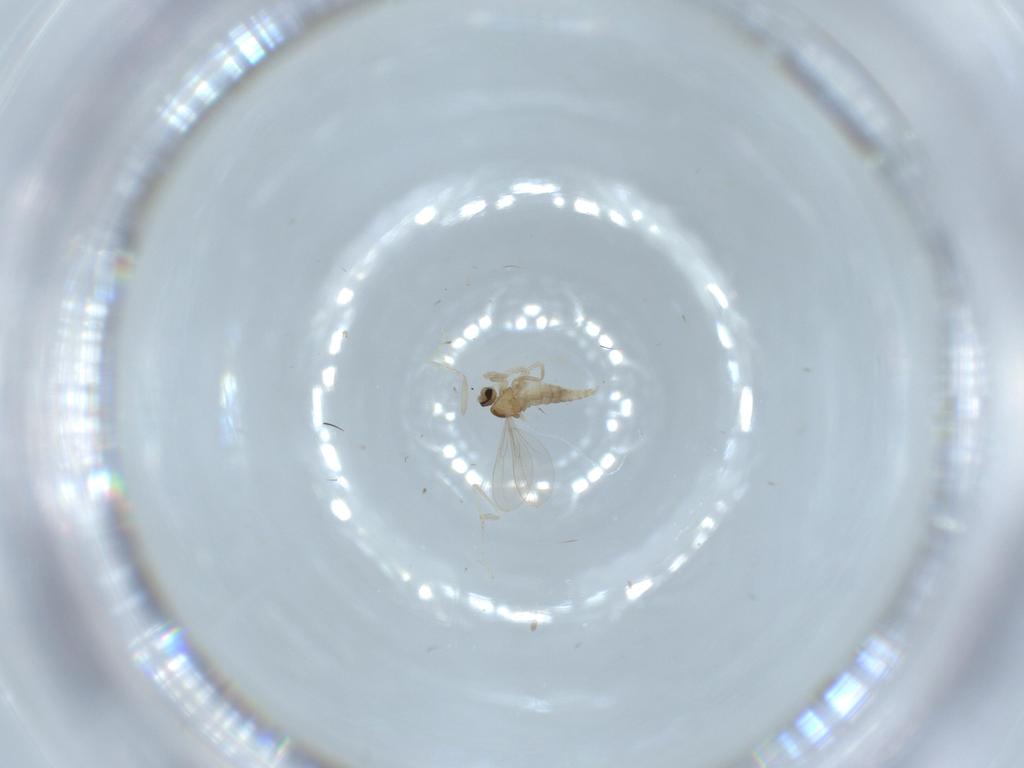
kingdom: Animalia
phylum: Arthropoda
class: Insecta
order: Diptera
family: Cecidomyiidae
